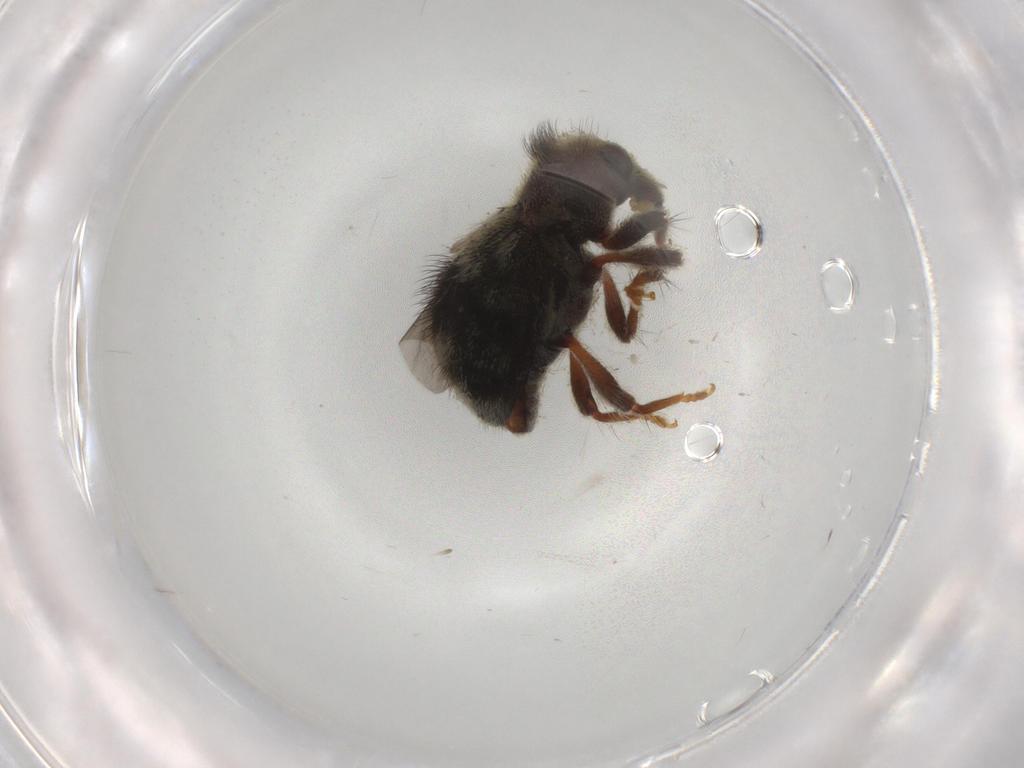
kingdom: Animalia
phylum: Arthropoda
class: Insecta
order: Coleoptera
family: Curculionidae
